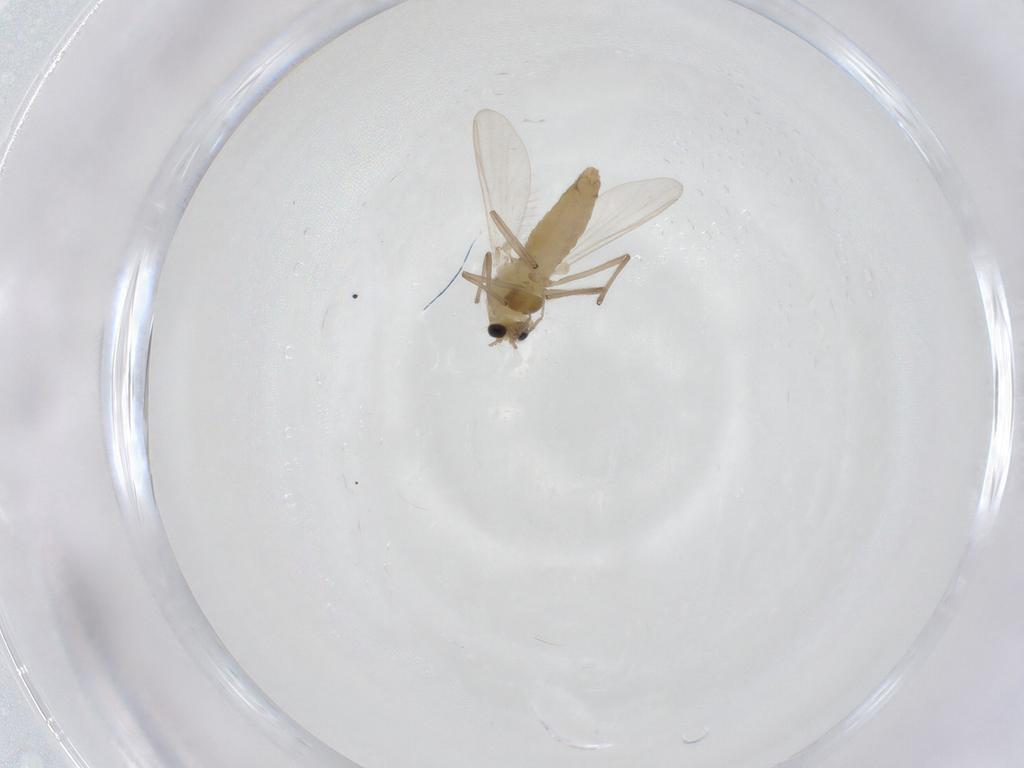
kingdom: Animalia
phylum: Arthropoda
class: Insecta
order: Diptera
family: Chironomidae
